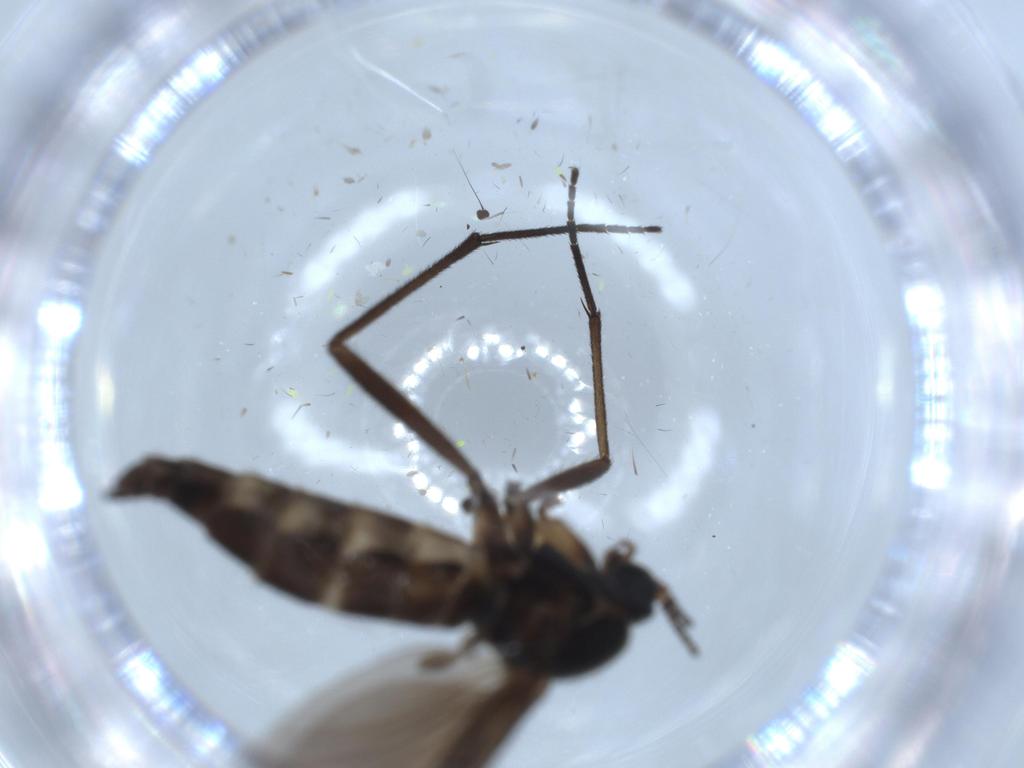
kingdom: Animalia
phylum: Arthropoda
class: Insecta
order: Diptera
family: Sciaridae
